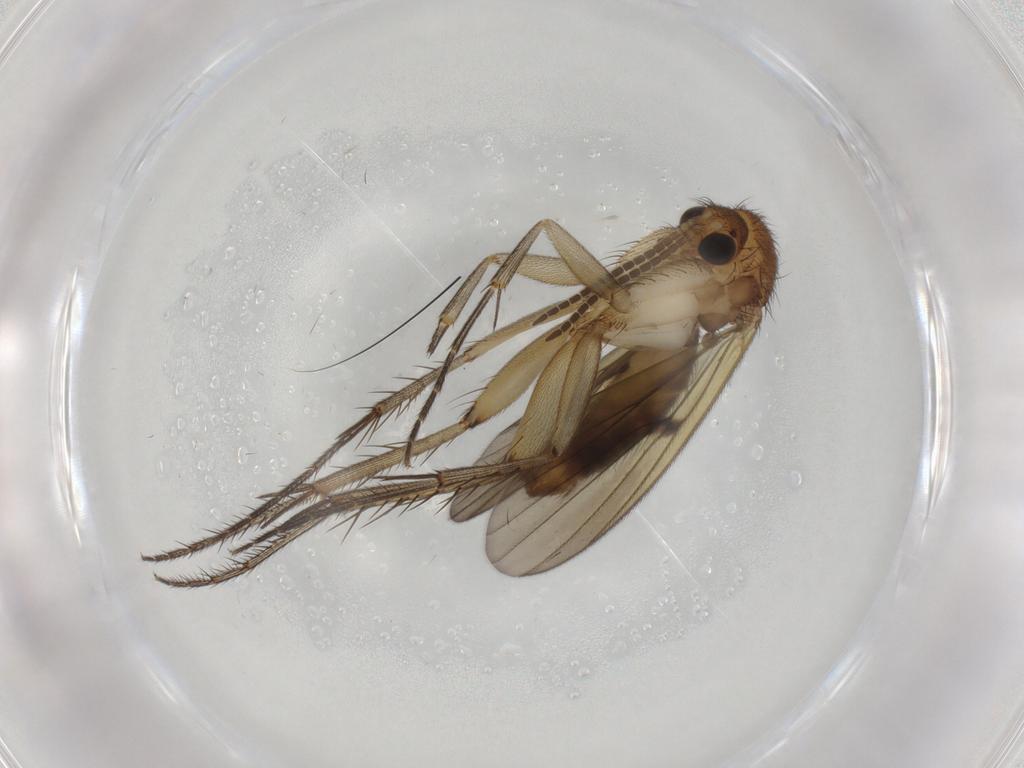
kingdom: Animalia
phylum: Arthropoda
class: Insecta
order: Diptera
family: Mycetophilidae
